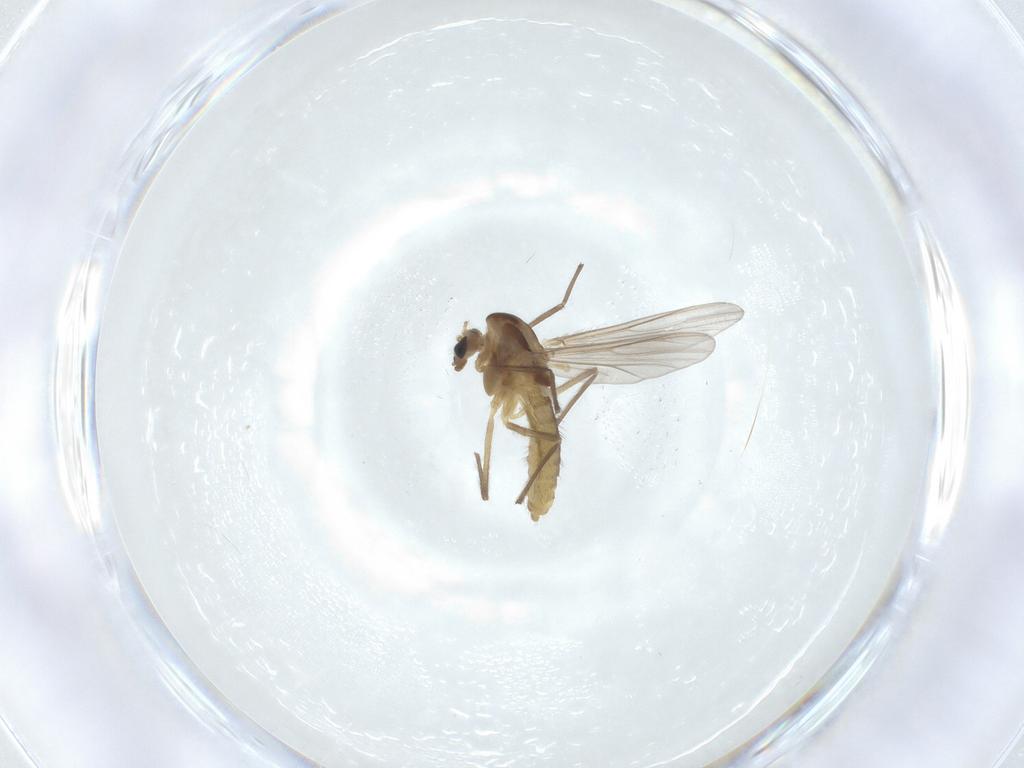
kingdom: Animalia
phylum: Arthropoda
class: Insecta
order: Diptera
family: Chironomidae
